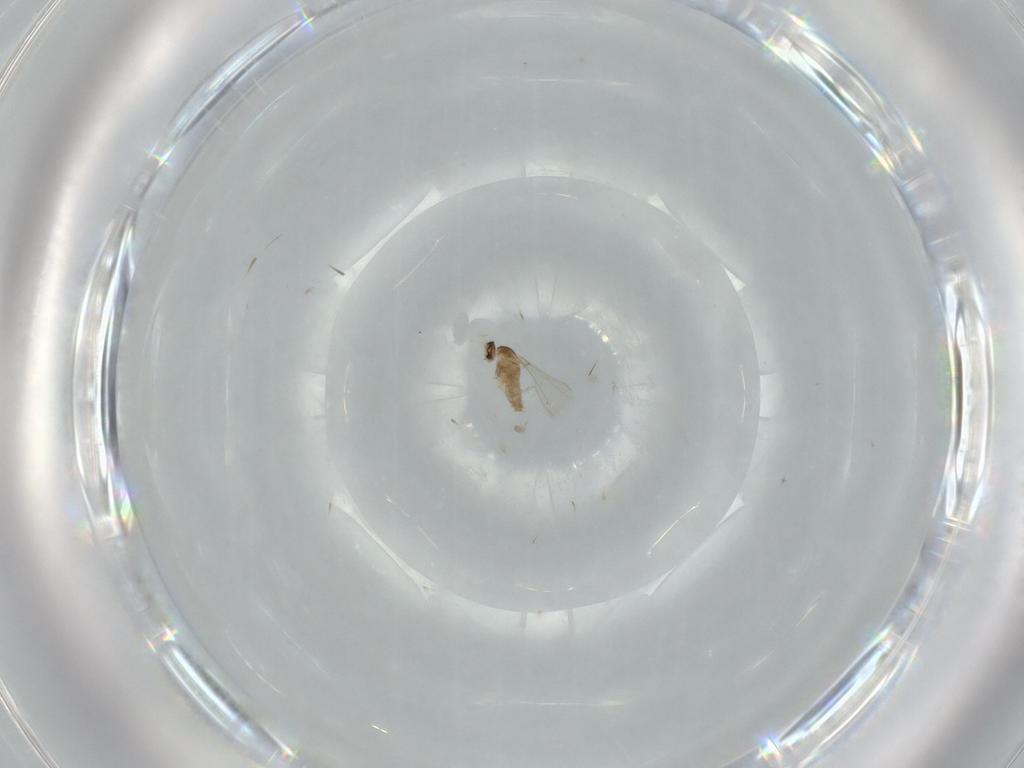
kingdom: Animalia
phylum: Arthropoda
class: Insecta
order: Diptera
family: Cecidomyiidae
